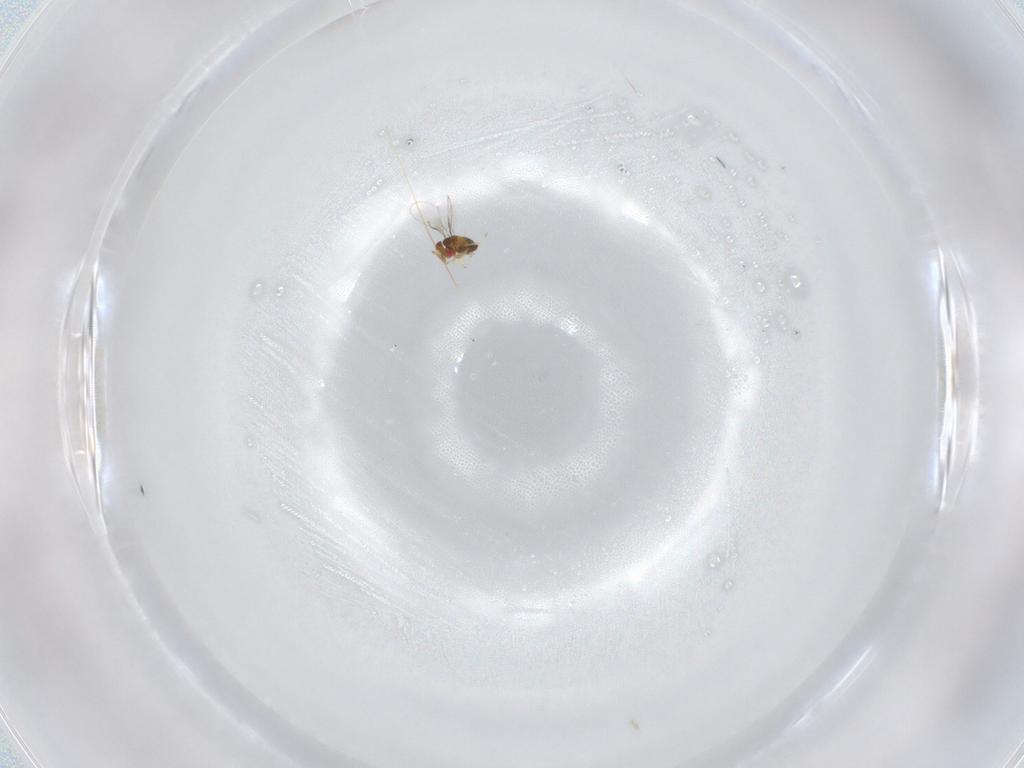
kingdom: Animalia
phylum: Arthropoda
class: Insecta
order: Hymenoptera
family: Trichogrammatidae
